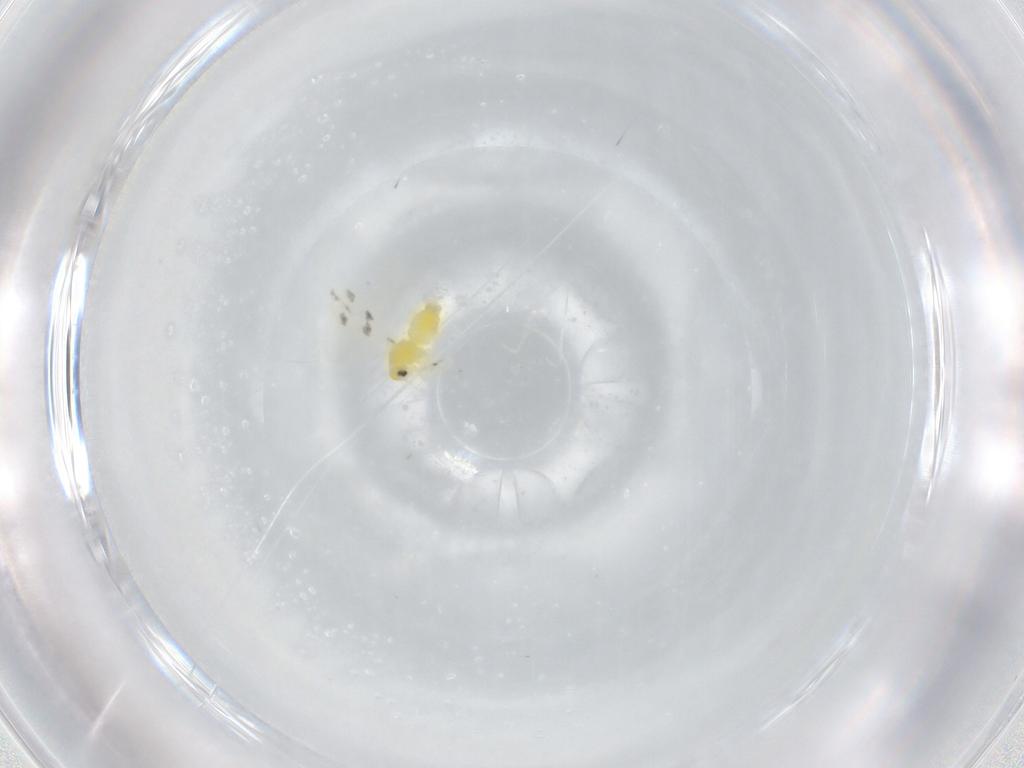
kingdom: Animalia
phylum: Arthropoda
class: Insecta
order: Hemiptera
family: Aleyrodidae
